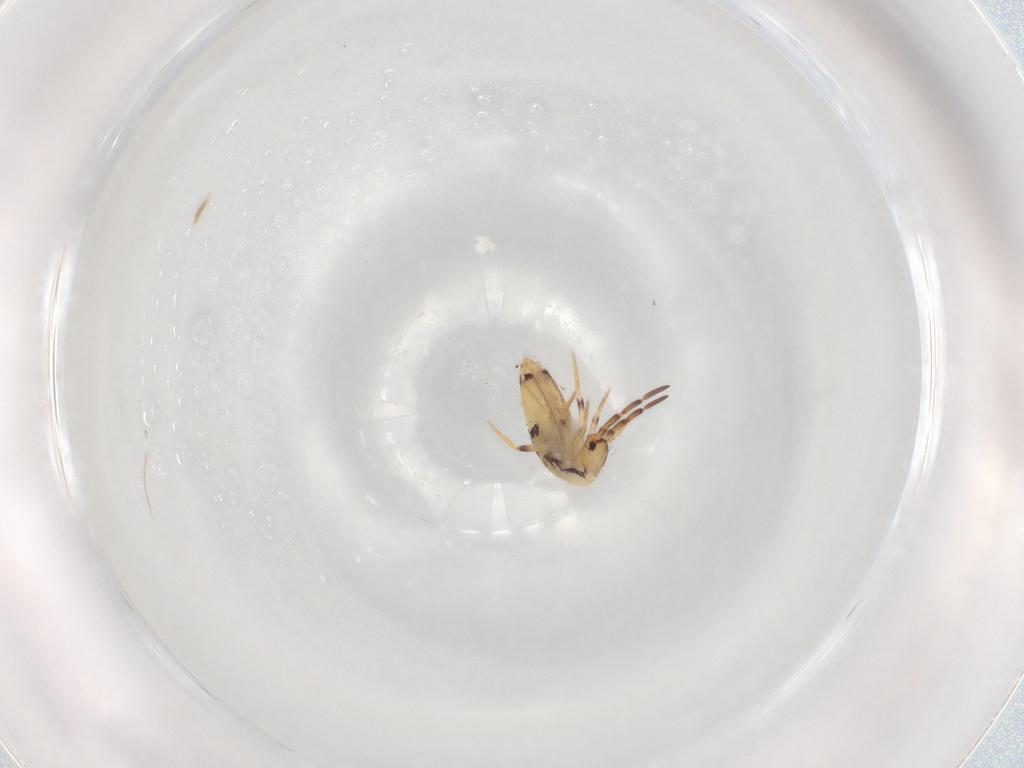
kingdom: Animalia
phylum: Arthropoda
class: Collembola
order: Entomobryomorpha
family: Entomobryidae
